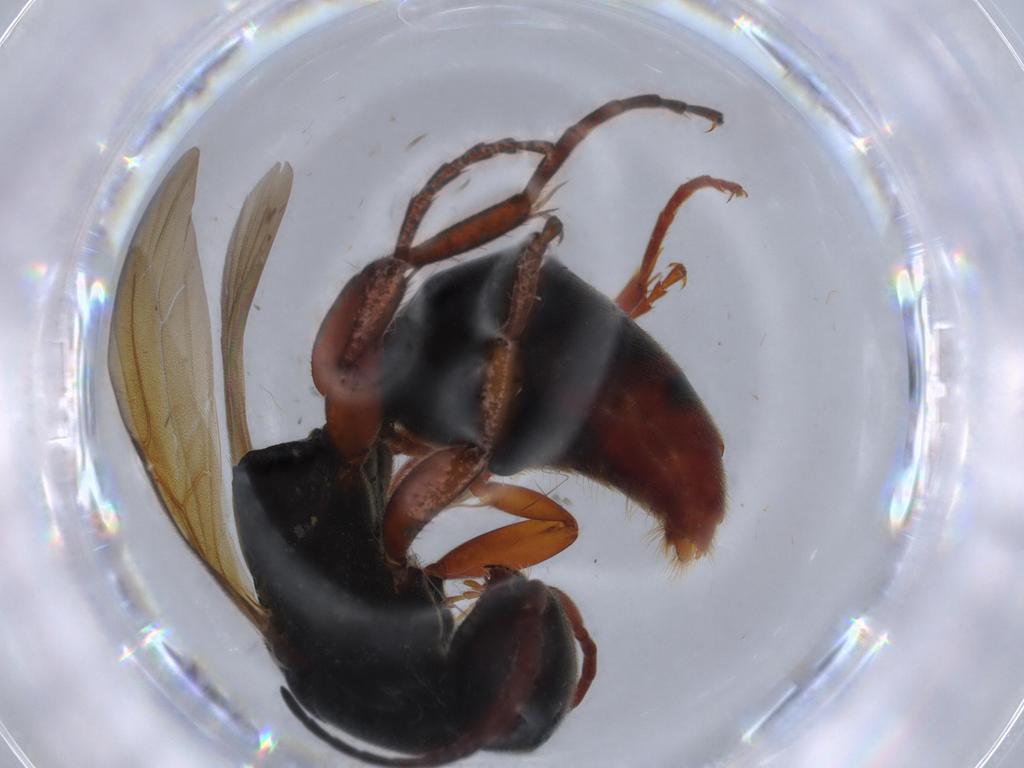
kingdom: Animalia
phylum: Arthropoda
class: Insecta
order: Hymenoptera
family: Bethylidae
